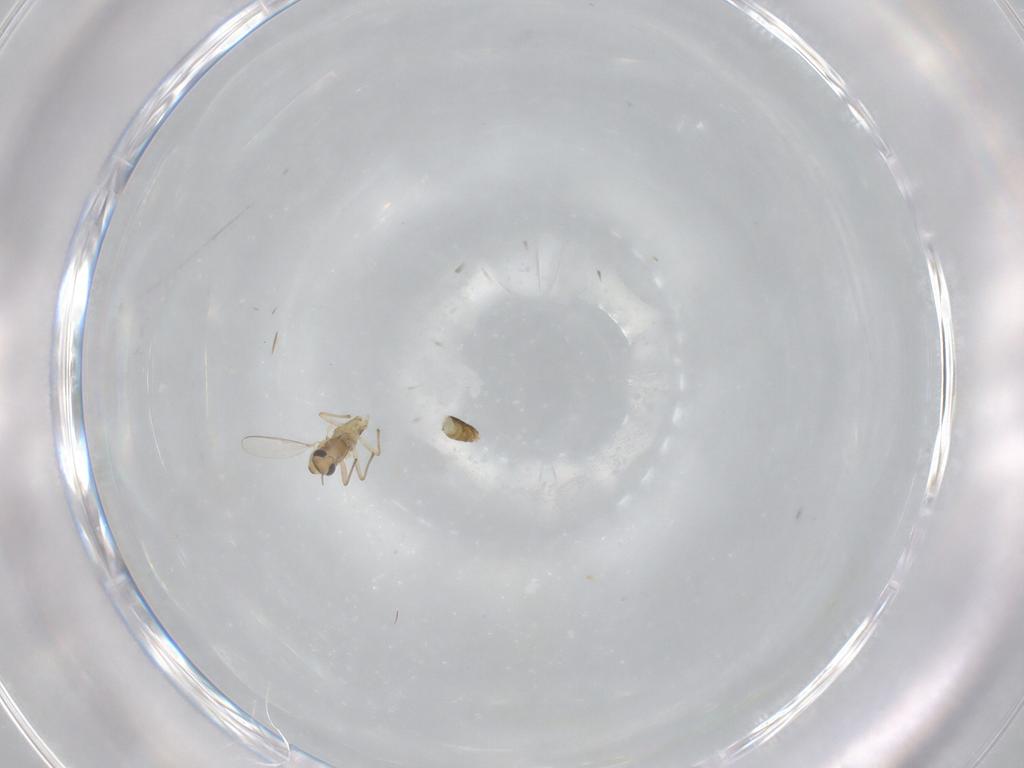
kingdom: Animalia
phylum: Arthropoda
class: Insecta
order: Diptera
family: Chironomidae
